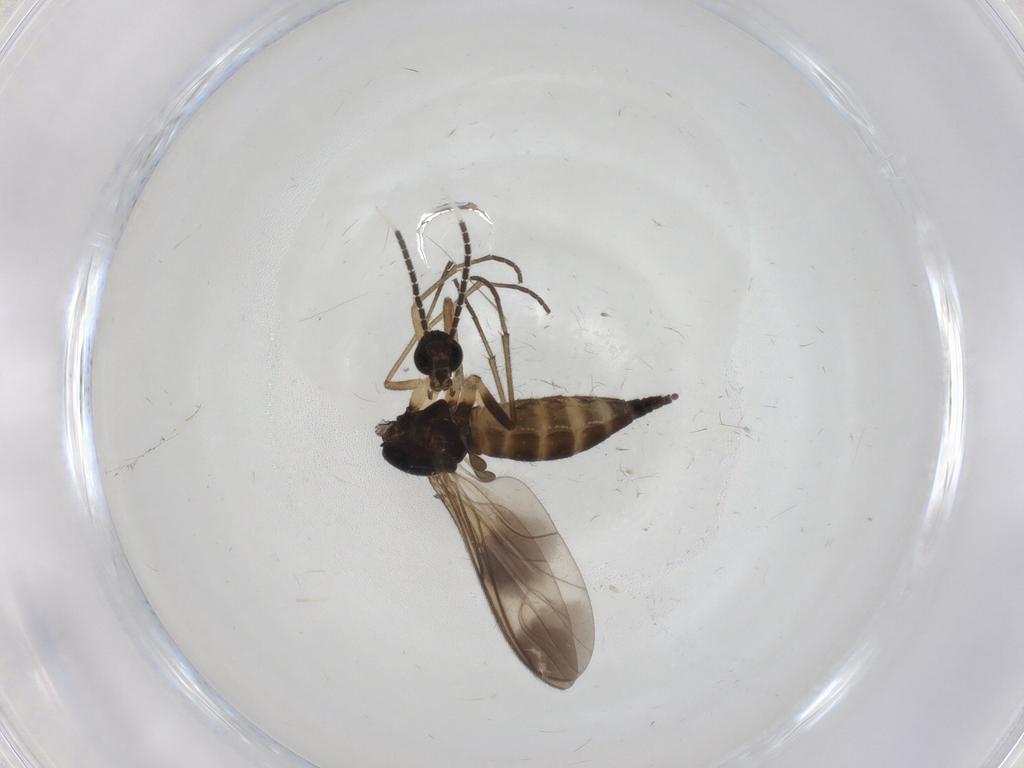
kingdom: Animalia
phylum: Arthropoda
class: Insecta
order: Diptera
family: Sciaridae
